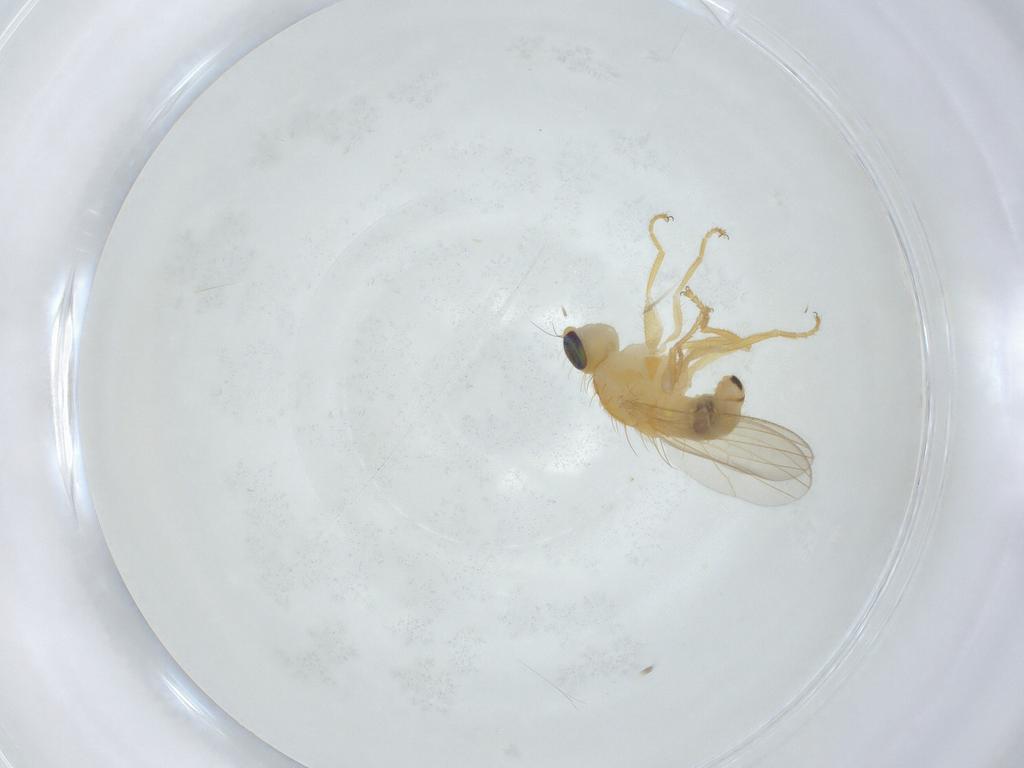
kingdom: Animalia
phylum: Arthropoda
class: Insecta
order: Diptera
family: Chyromyidae
